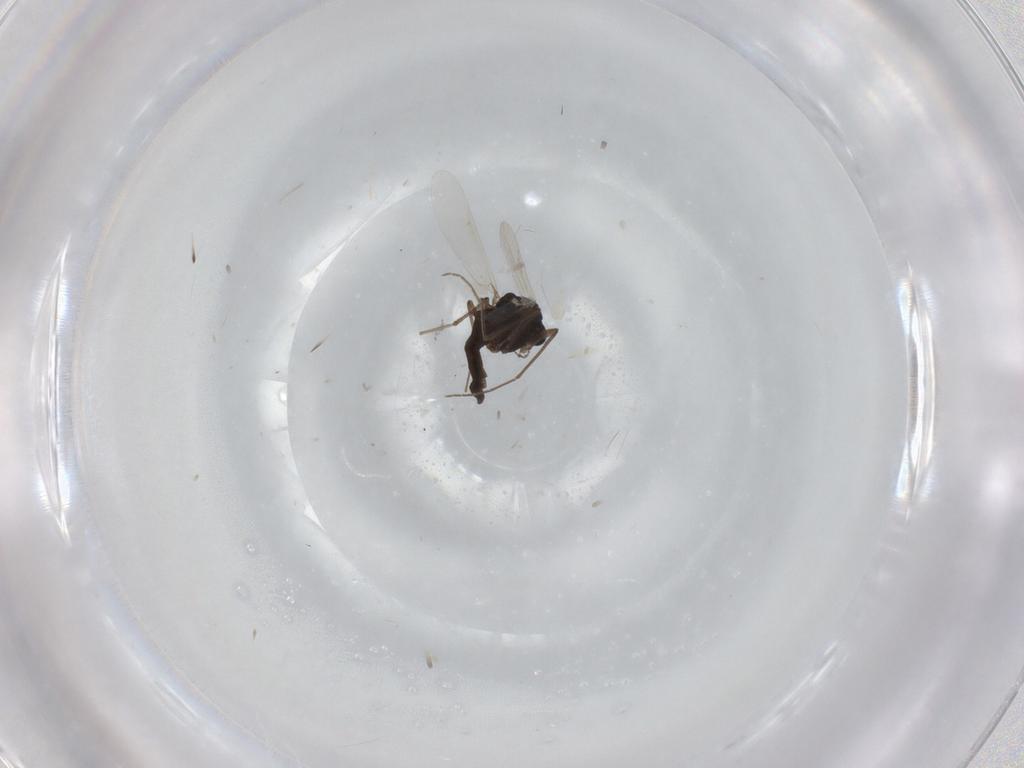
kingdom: Animalia
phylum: Arthropoda
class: Insecta
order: Diptera
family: Chironomidae
